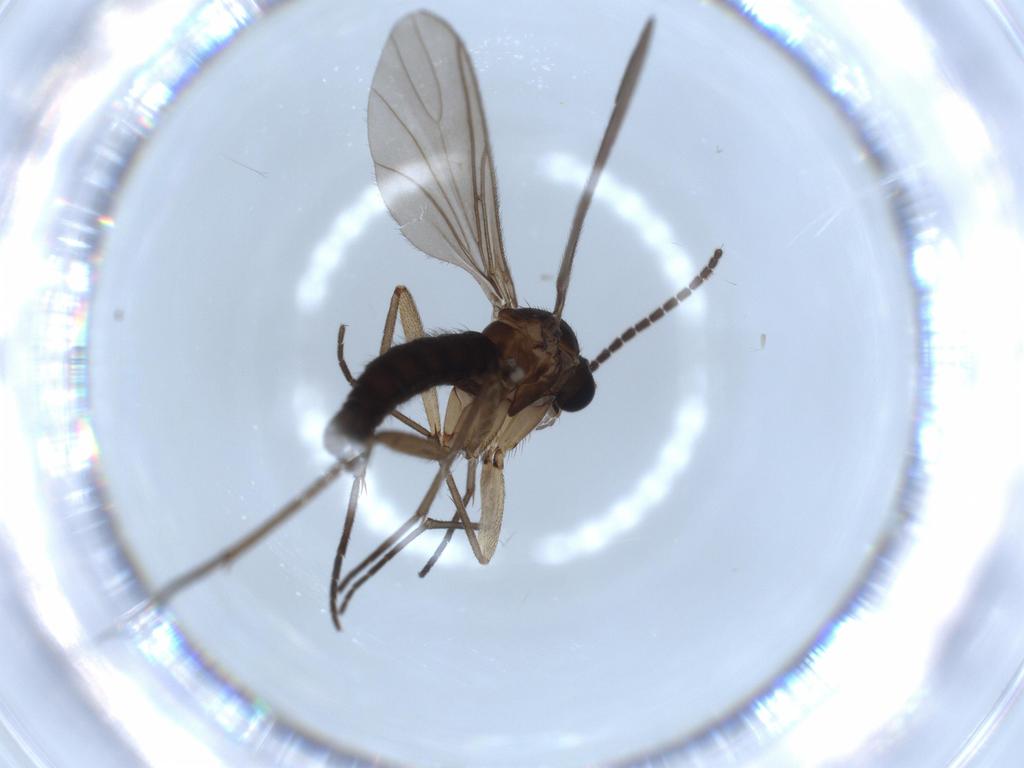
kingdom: Animalia
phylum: Arthropoda
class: Insecta
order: Diptera
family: Sciaridae
